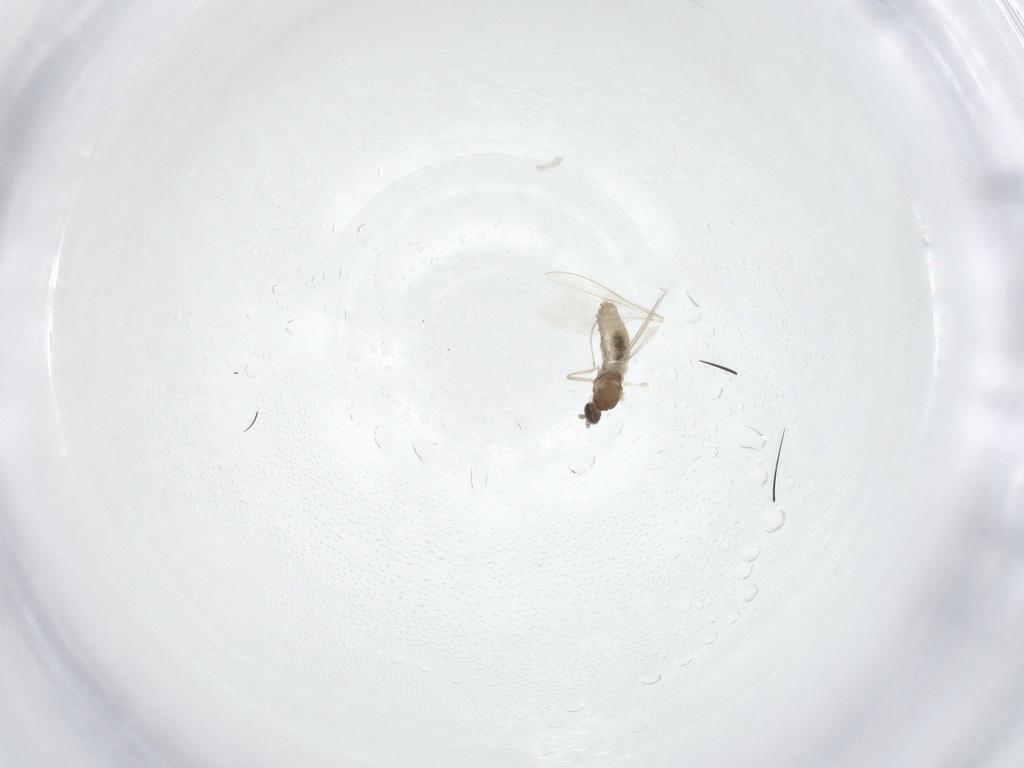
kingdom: Animalia
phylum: Arthropoda
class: Insecta
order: Diptera
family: Cecidomyiidae
